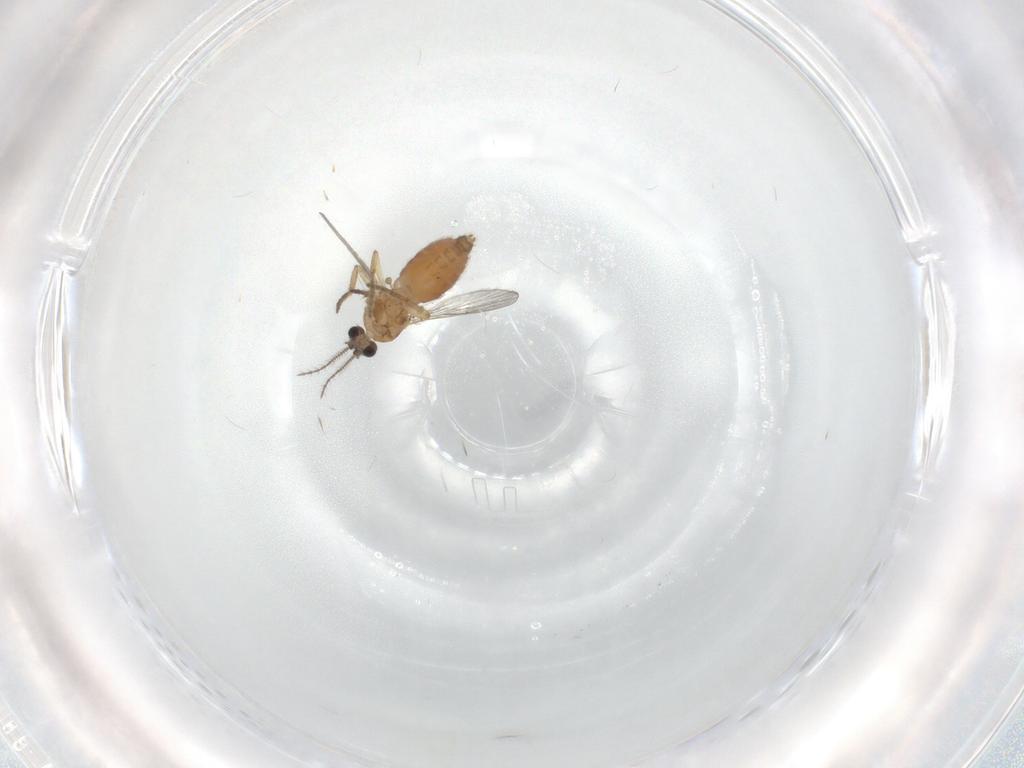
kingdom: Animalia
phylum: Arthropoda
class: Insecta
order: Diptera
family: Ceratopogonidae
